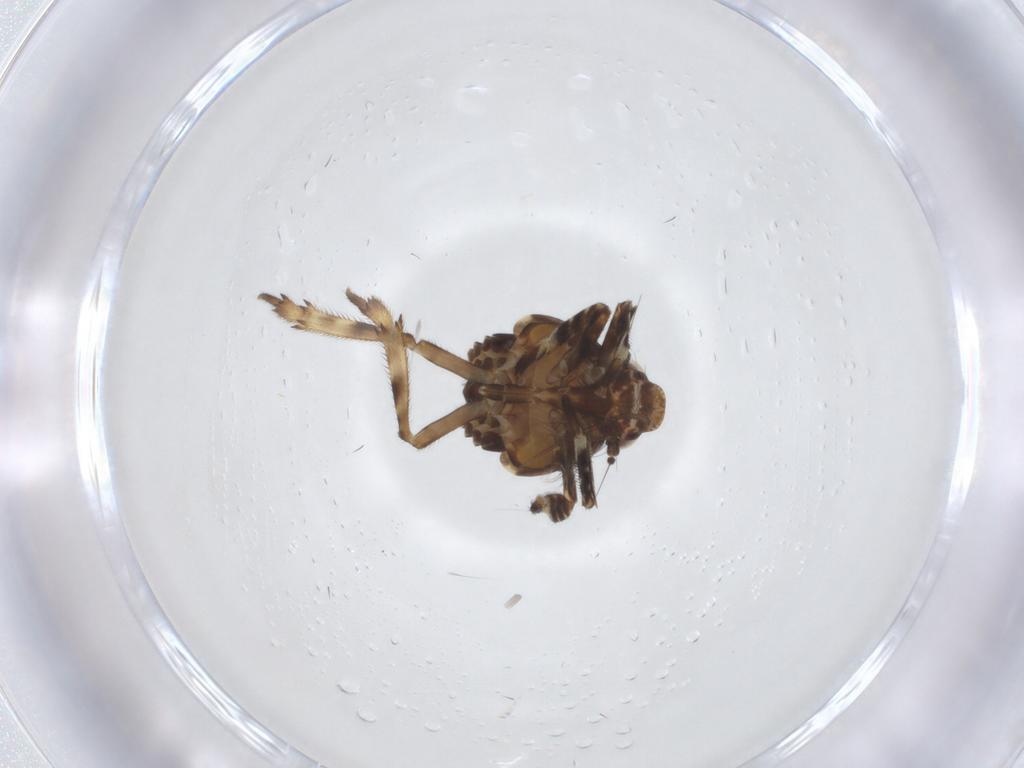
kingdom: Animalia
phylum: Arthropoda
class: Insecta
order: Hemiptera
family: Eurybrachidae
